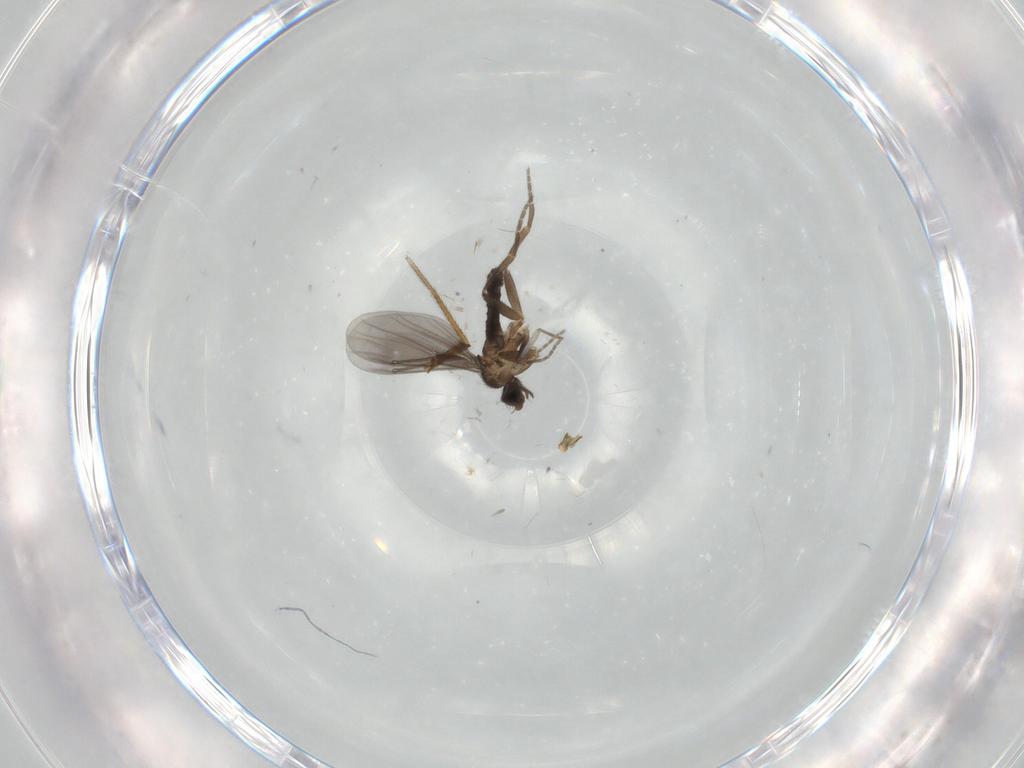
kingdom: Animalia
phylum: Arthropoda
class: Insecta
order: Diptera
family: Phoridae
